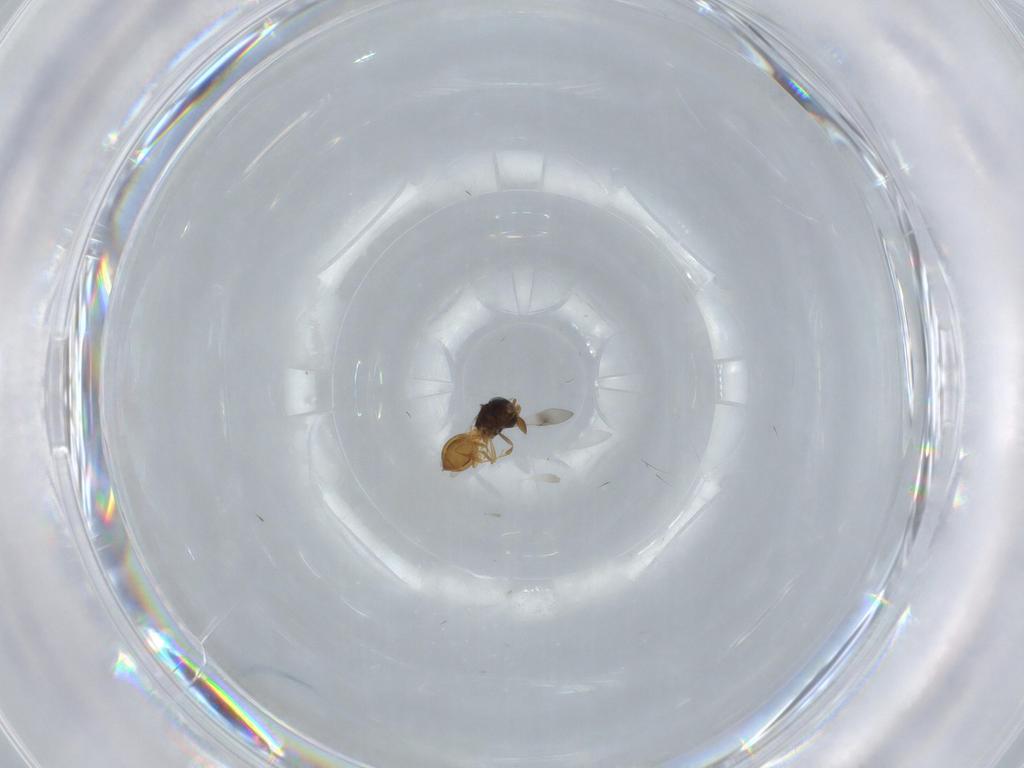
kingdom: Animalia
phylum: Arthropoda
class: Insecta
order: Hymenoptera
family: Scelionidae
